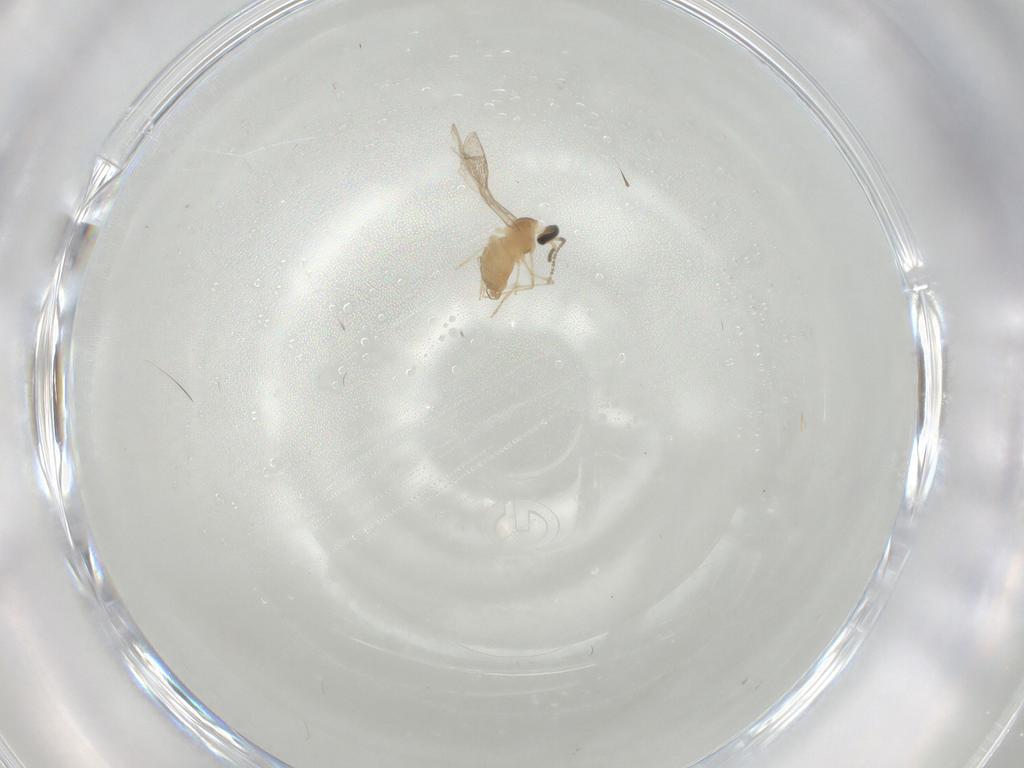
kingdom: Animalia
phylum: Arthropoda
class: Insecta
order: Diptera
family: Cecidomyiidae
